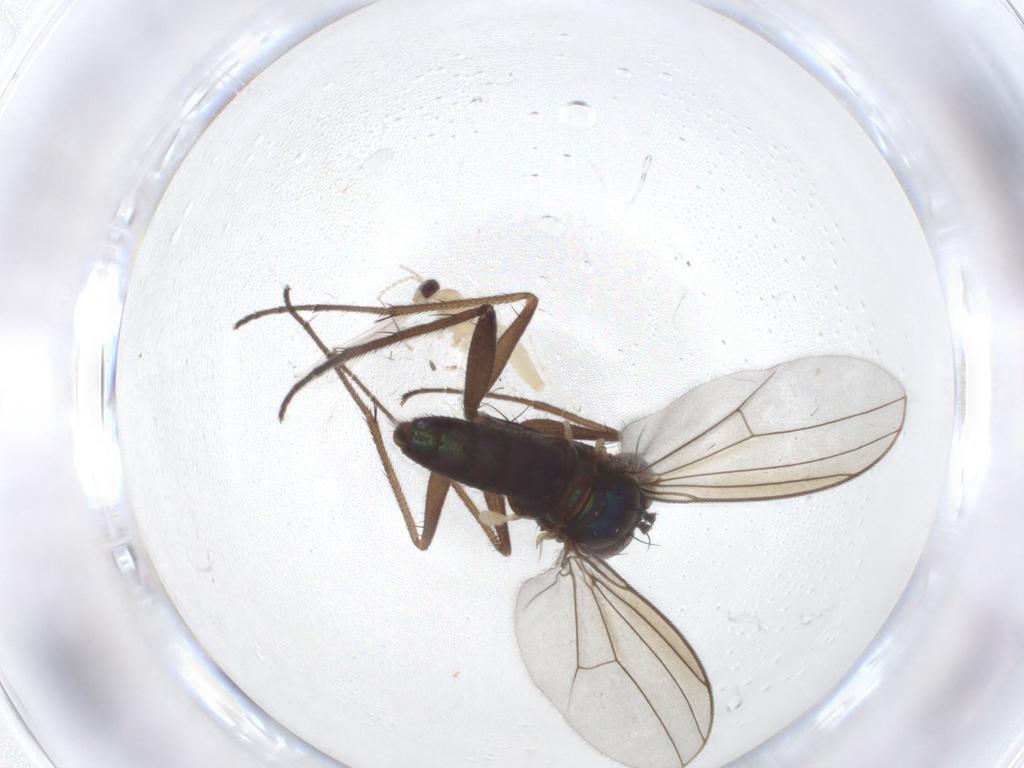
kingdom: Animalia
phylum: Arthropoda
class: Insecta
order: Diptera
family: Cecidomyiidae
